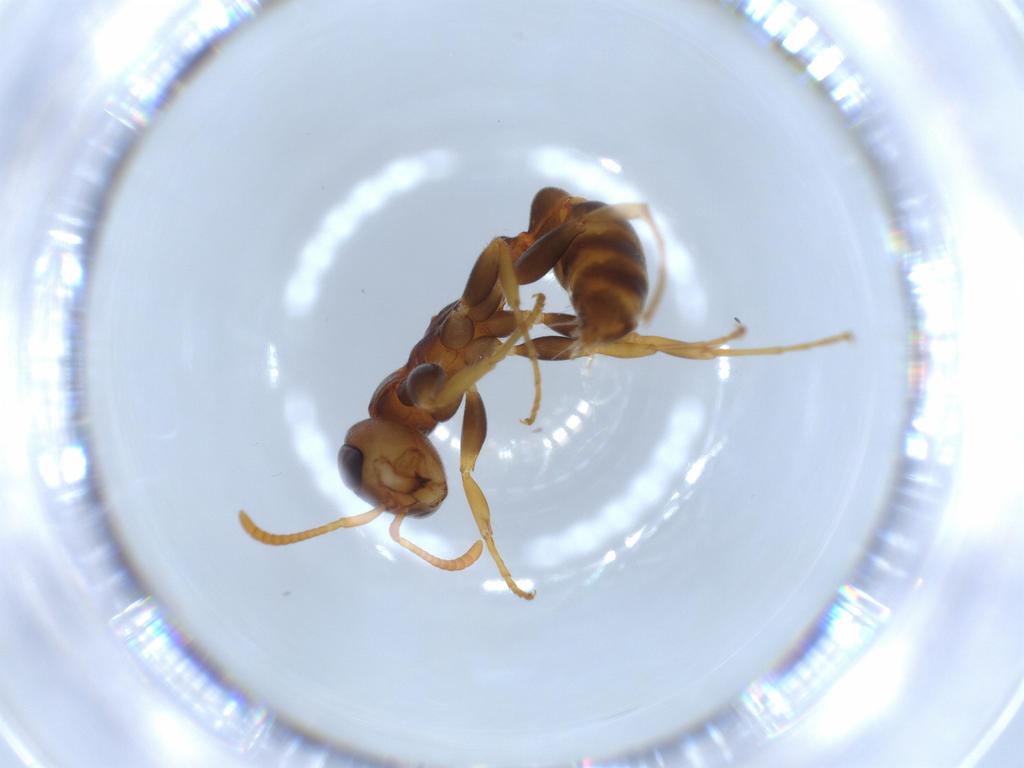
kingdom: Animalia
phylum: Arthropoda
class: Insecta
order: Hymenoptera
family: Formicidae
